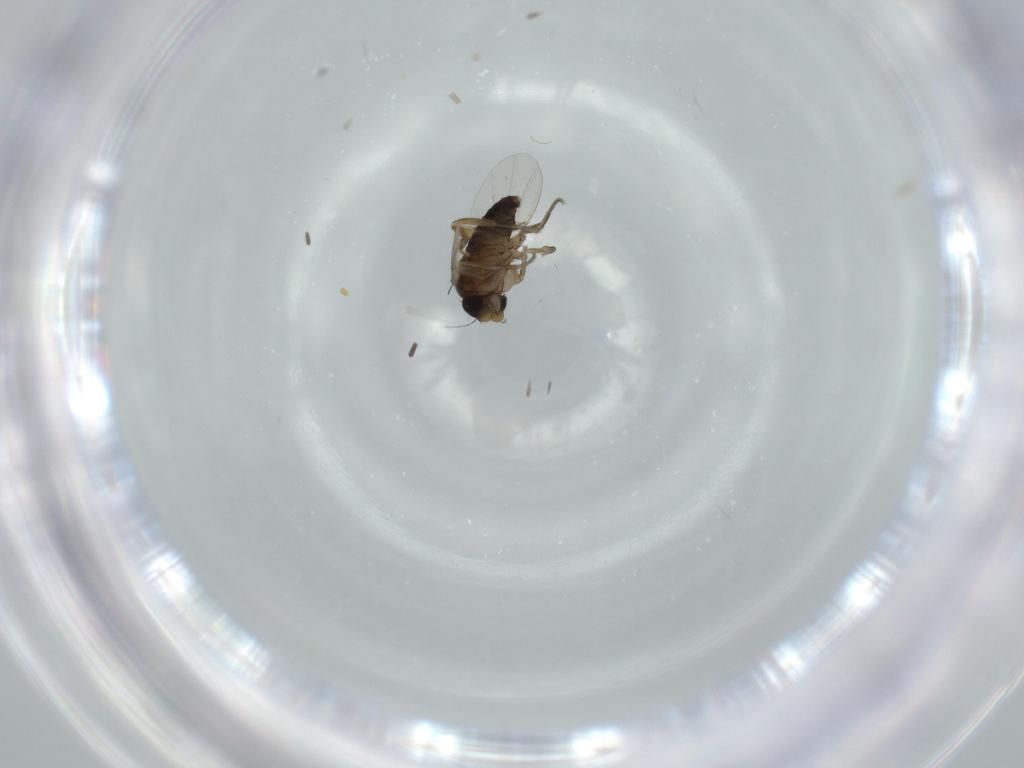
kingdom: Animalia
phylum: Arthropoda
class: Insecta
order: Diptera
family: Phoridae
